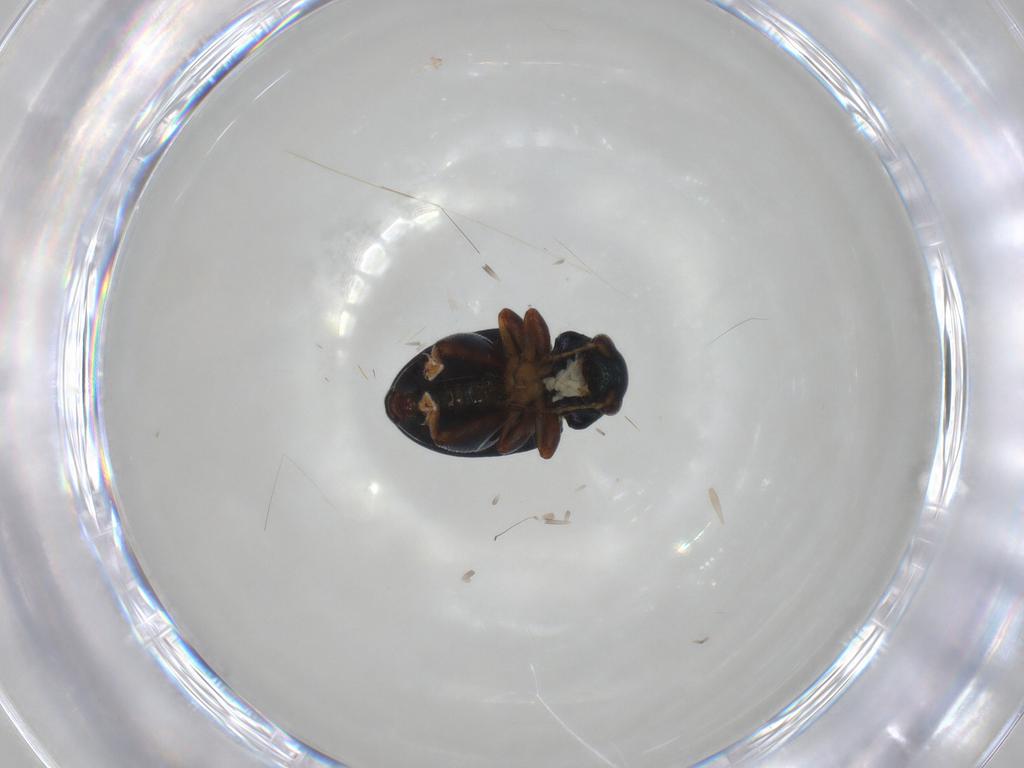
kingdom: Animalia
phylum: Arthropoda
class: Insecta
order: Coleoptera
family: Chrysomelidae
